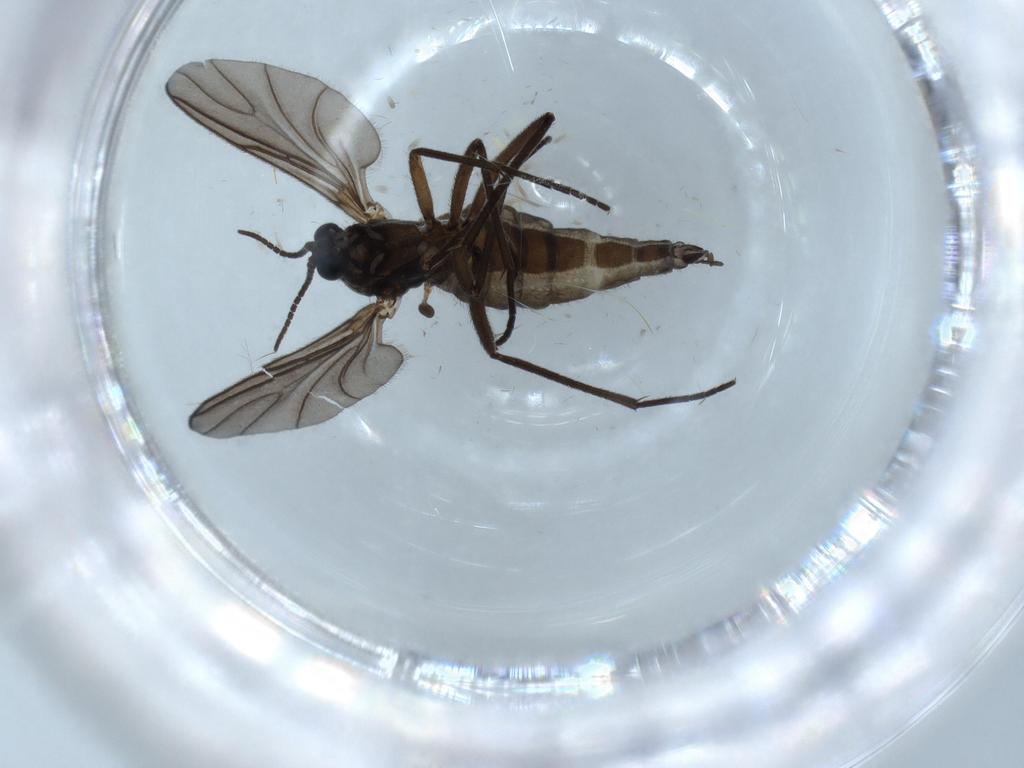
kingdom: Animalia
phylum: Arthropoda
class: Insecta
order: Diptera
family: Sciaridae
